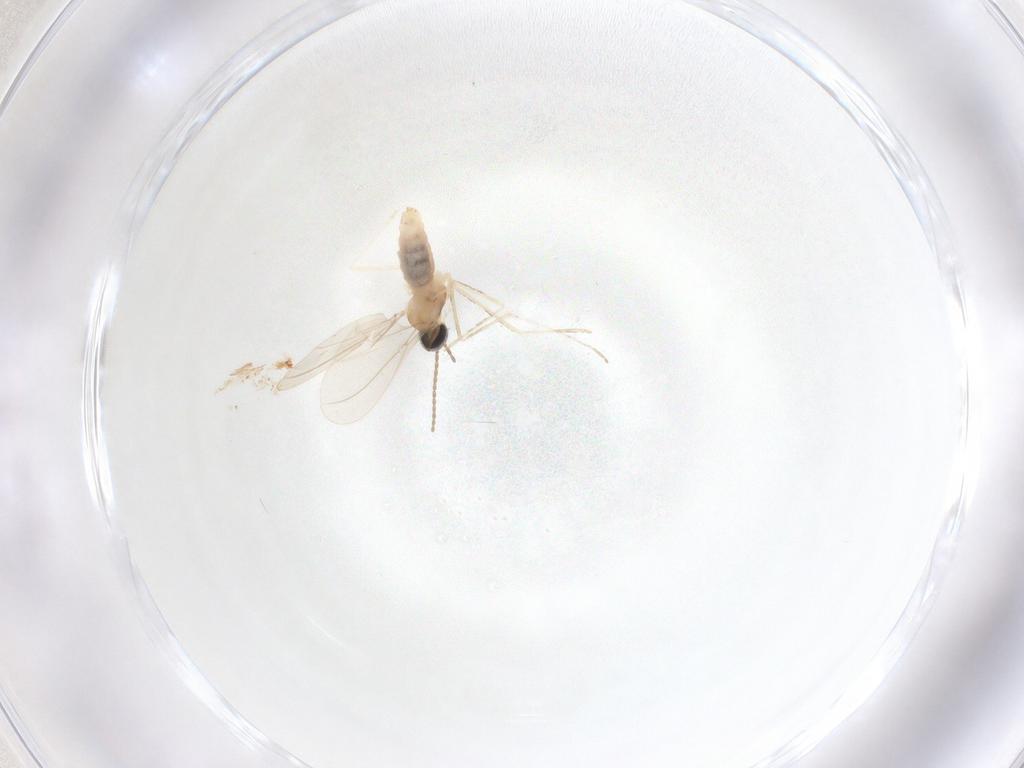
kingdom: Animalia
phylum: Arthropoda
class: Insecta
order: Diptera
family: Cecidomyiidae
